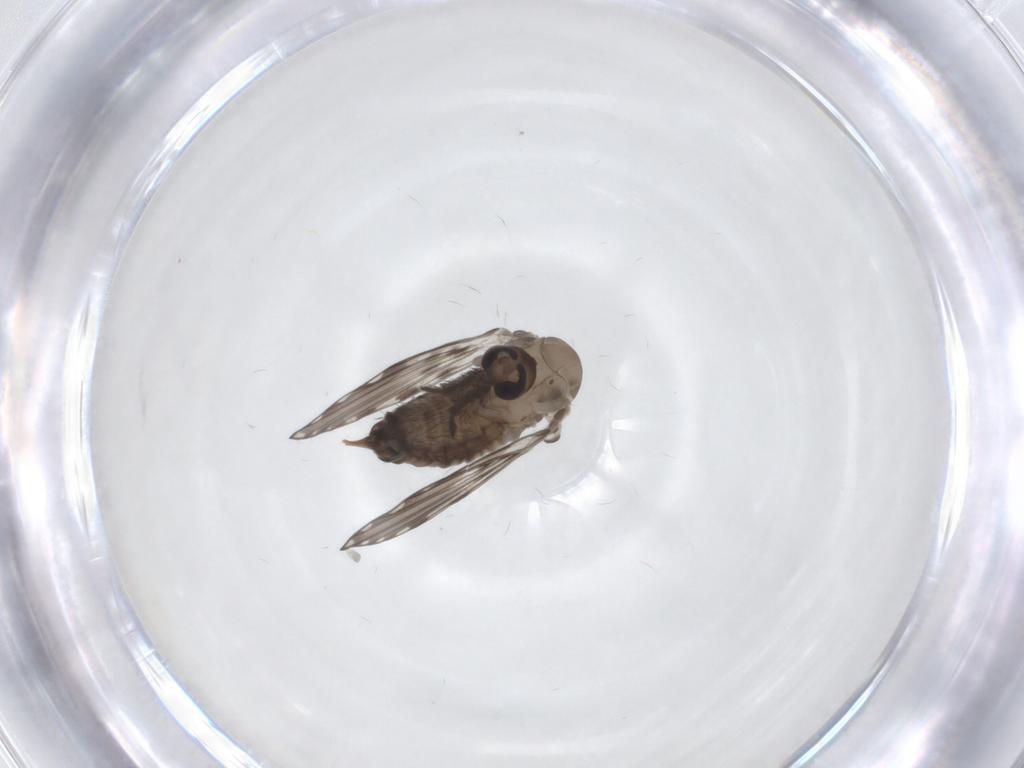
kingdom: Animalia
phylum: Arthropoda
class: Insecta
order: Diptera
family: Psychodidae
